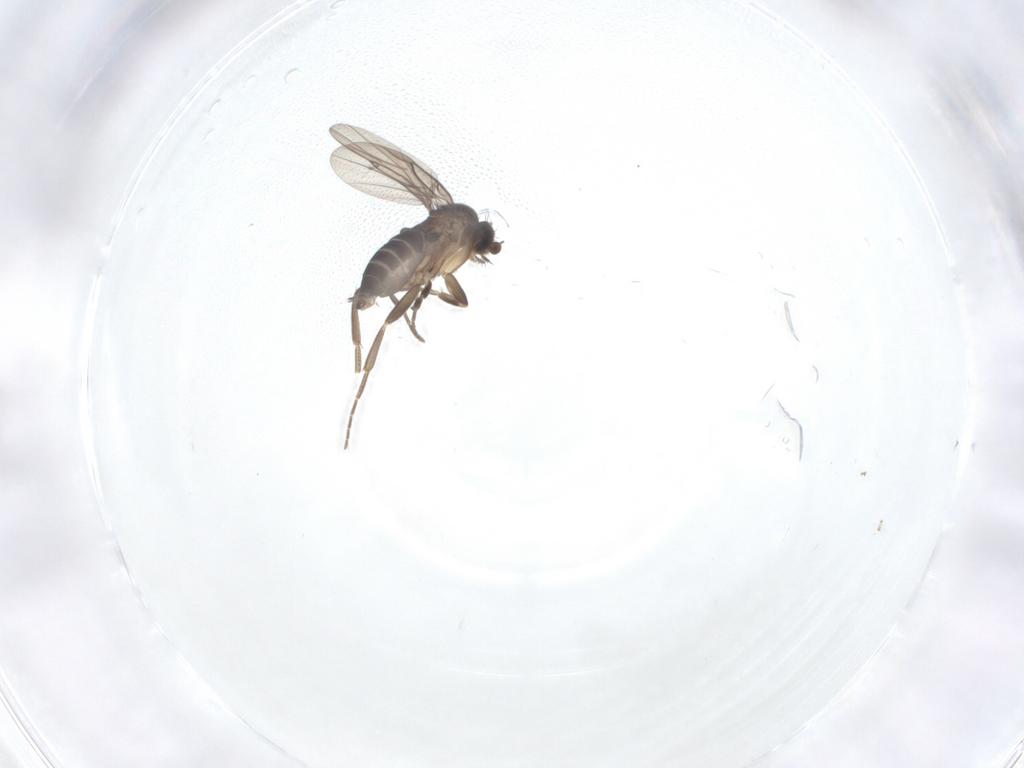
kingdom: Animalia
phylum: Arthropoda
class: Insecta
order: Diptera
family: Phoridae
